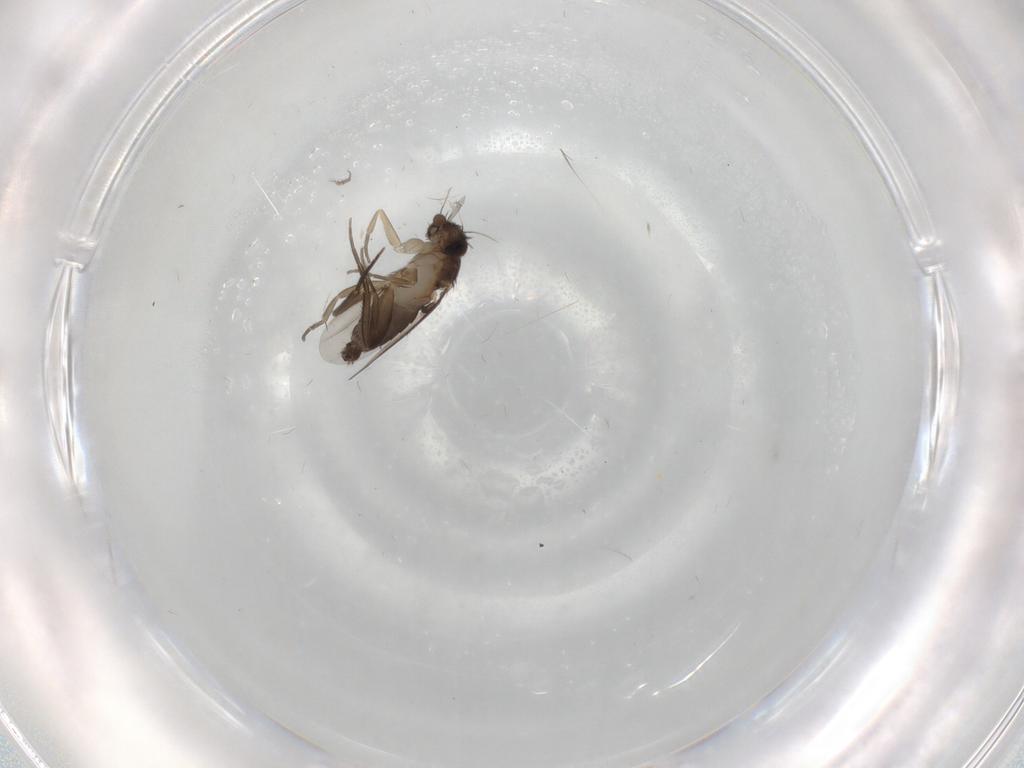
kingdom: Animalia
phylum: Arthropoda
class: Insecta
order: Diptera
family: Phoridae
